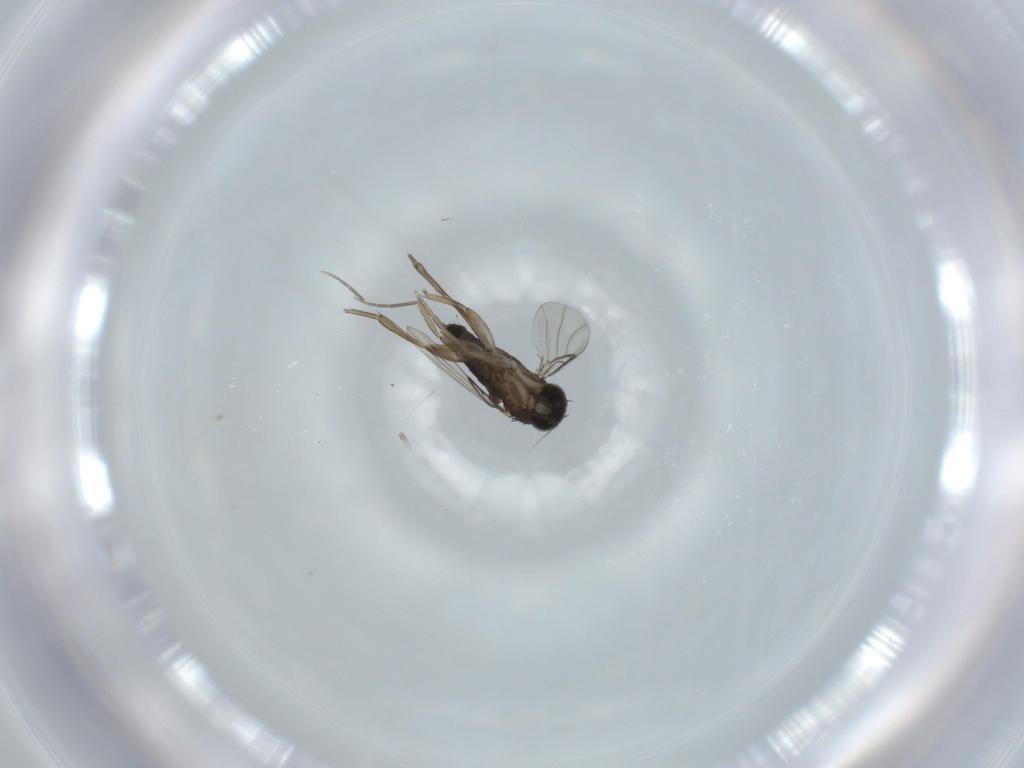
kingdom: Animalia
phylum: Arthropoda
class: Insecta
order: Diptera
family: Phoridae
